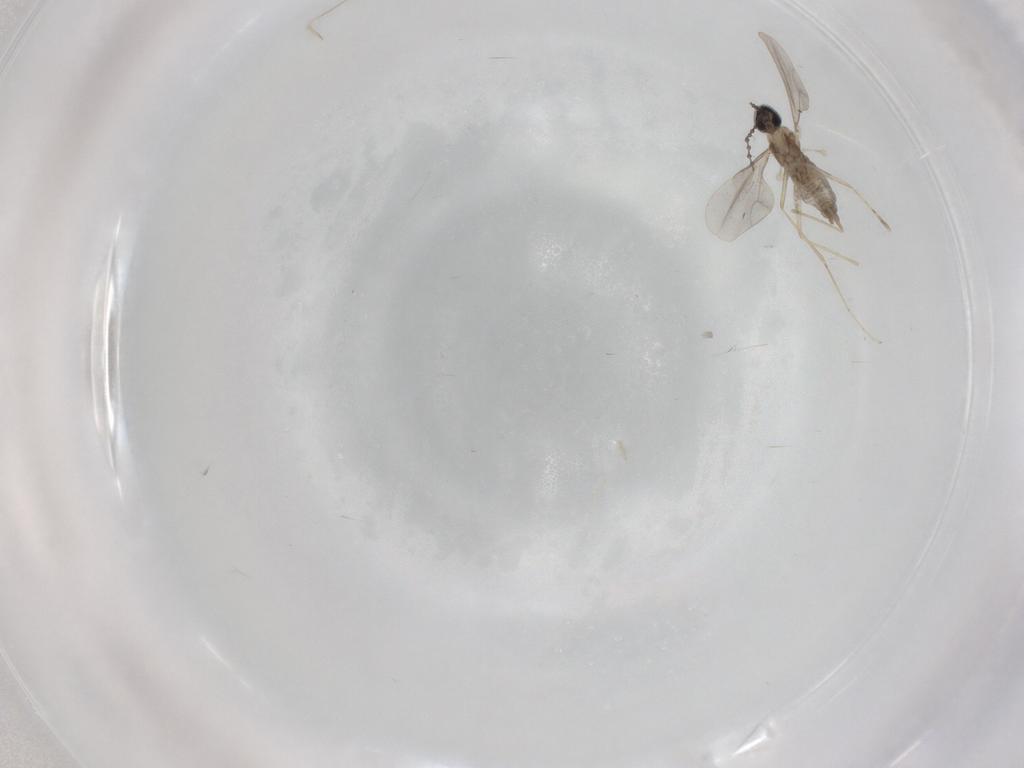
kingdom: Animalia
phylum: Arthropoda
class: Insecta
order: Diptera
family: Cecidomyiidae
